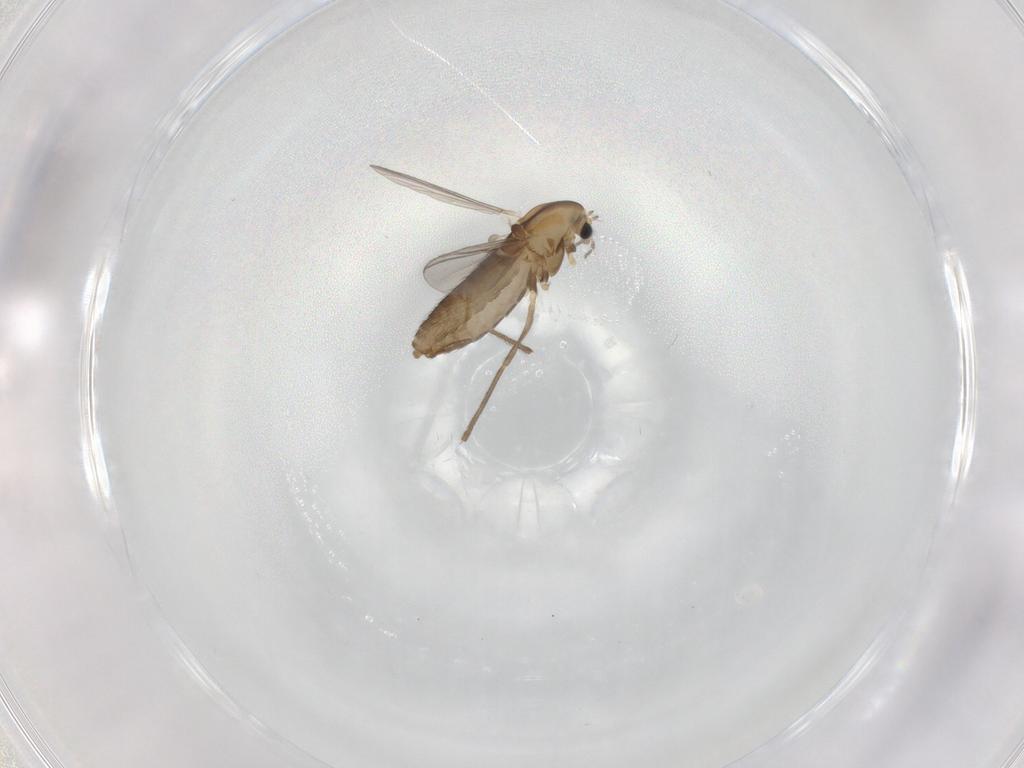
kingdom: Animalia
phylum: Arthropoda
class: Insecta
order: Diptera
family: Chironomidae
